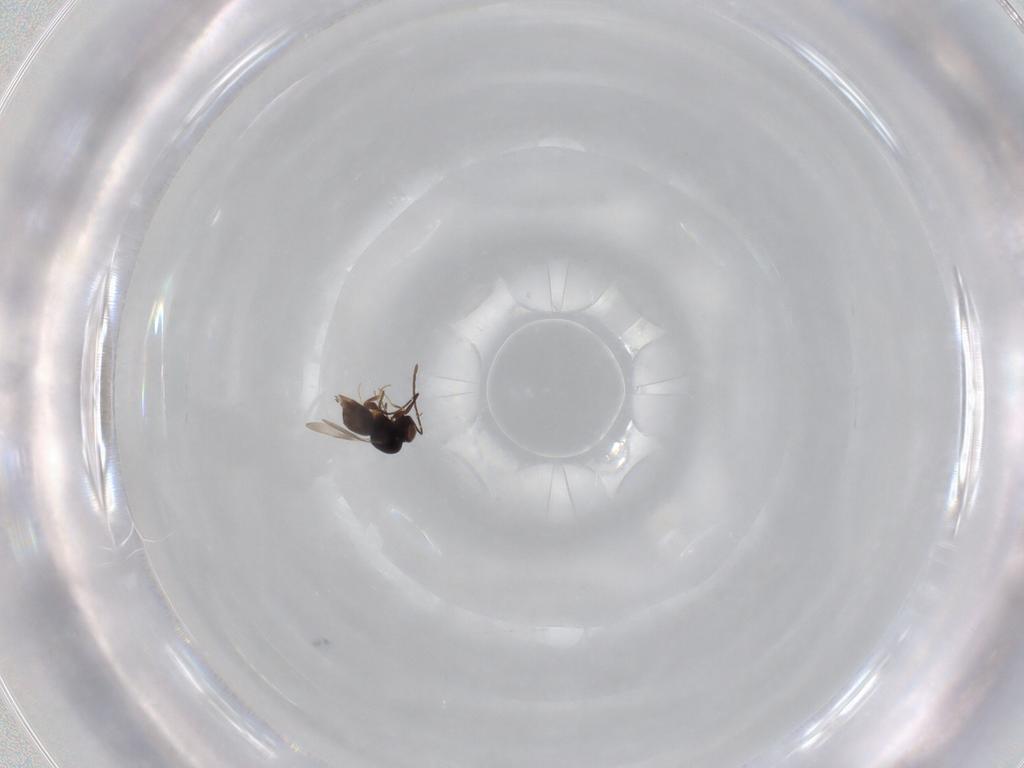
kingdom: Animalia
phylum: Arthropoda
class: Insecta
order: Hymenoptera
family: Ceraphronidae
